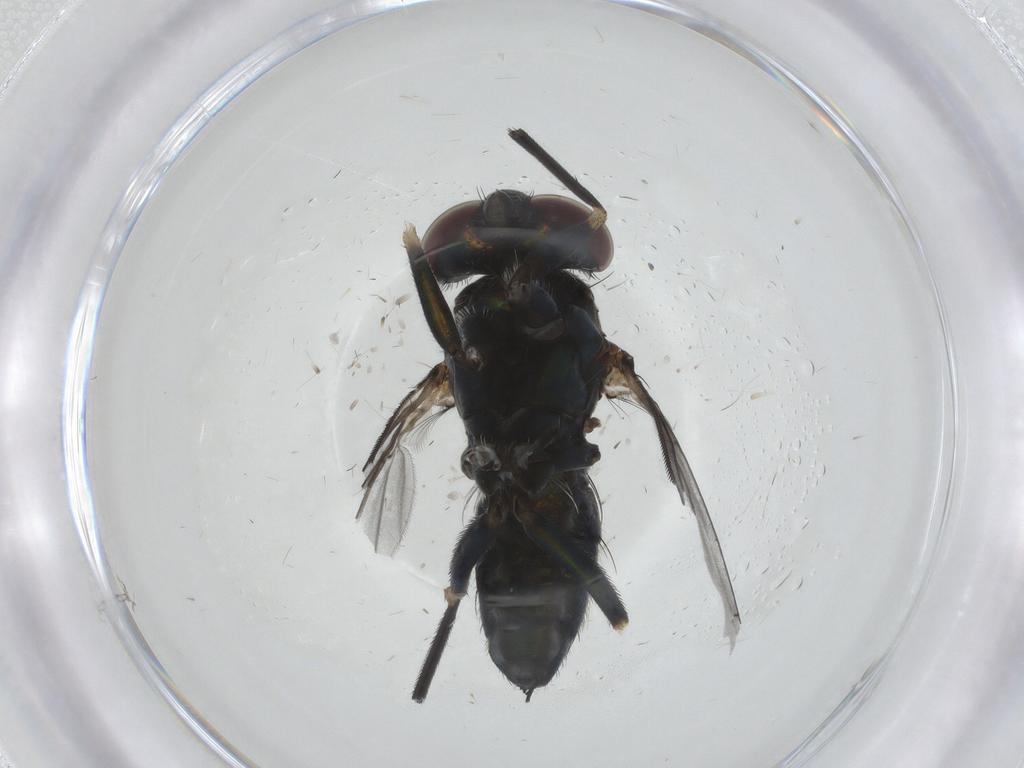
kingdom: Animalia
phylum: Arthropoda
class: Insecta
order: Diptera
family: Dolichopodidae
